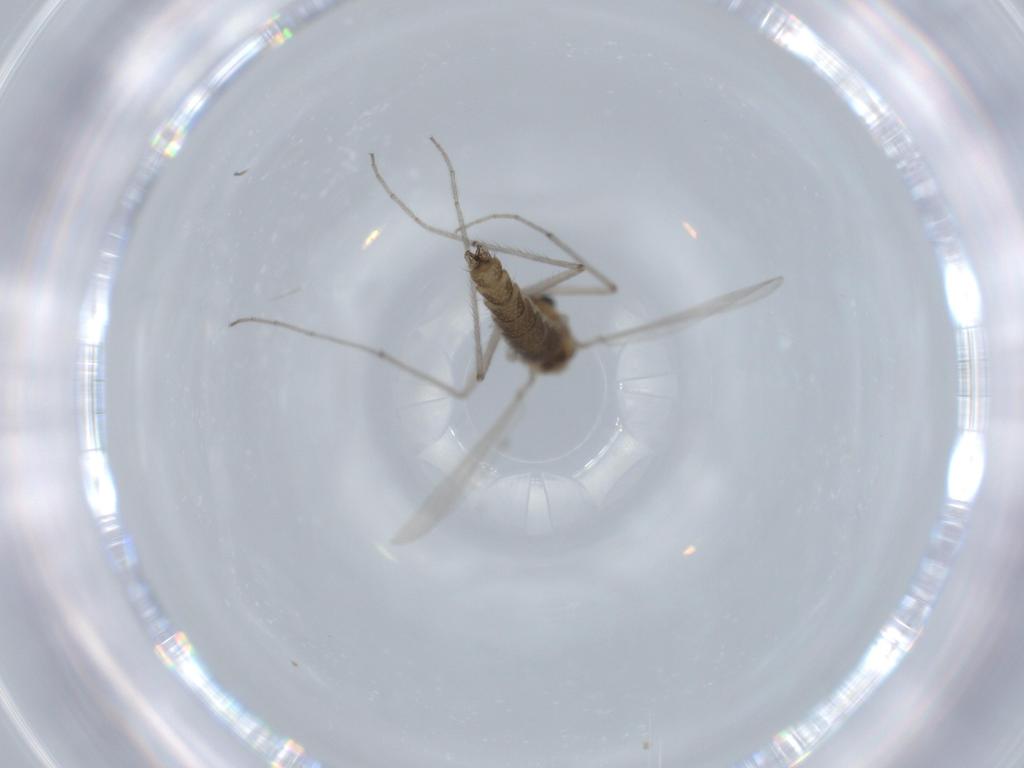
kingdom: Animalia
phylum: Arthropoda
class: Insecta
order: Diptera
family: Chironomidae
